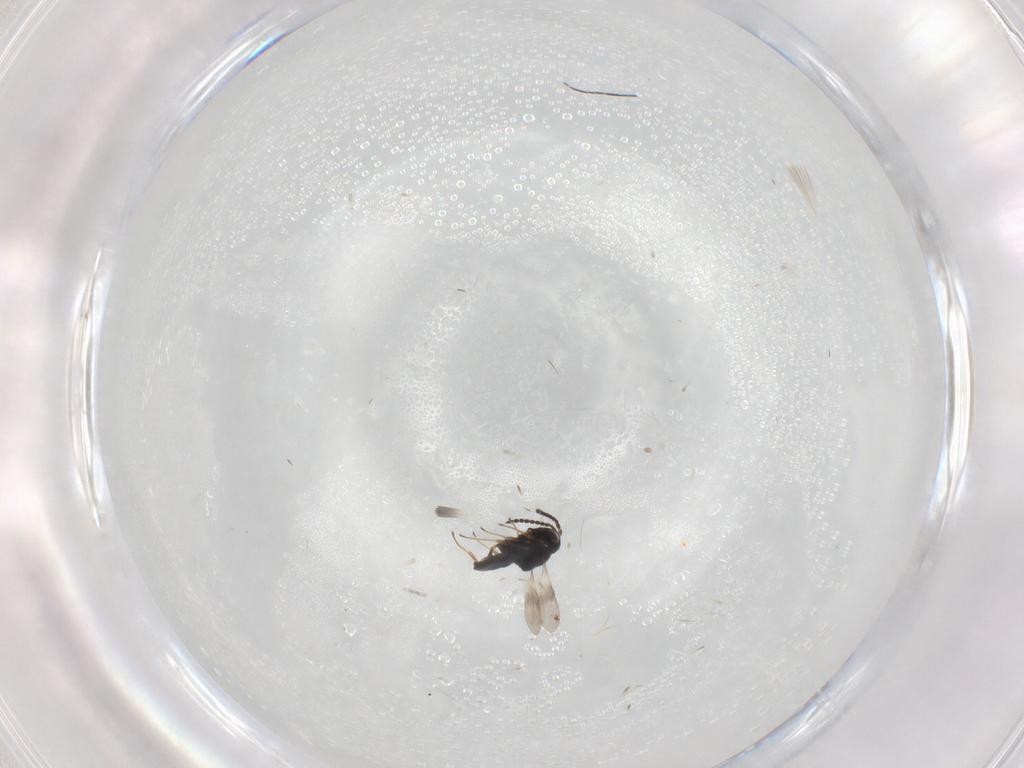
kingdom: Animalia
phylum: Arthropoda
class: Insecta
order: Hymenoptera
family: Scelionidae
